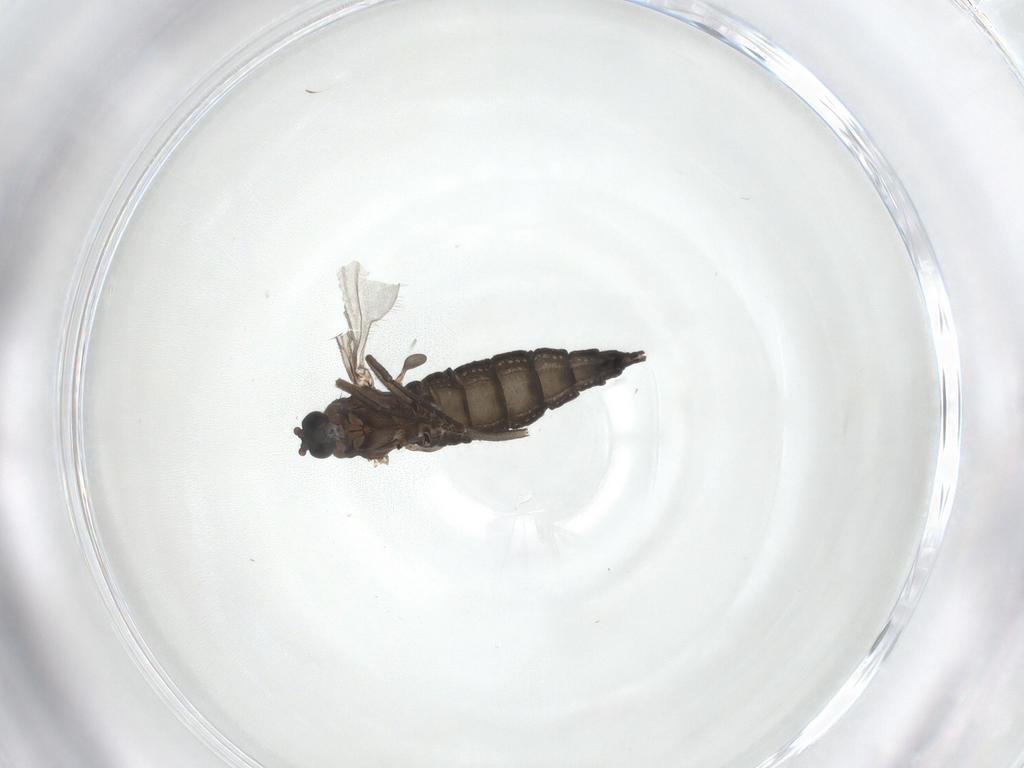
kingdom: Animalia
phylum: Arthropoda
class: Insecta
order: Diptera
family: Sciaridae
